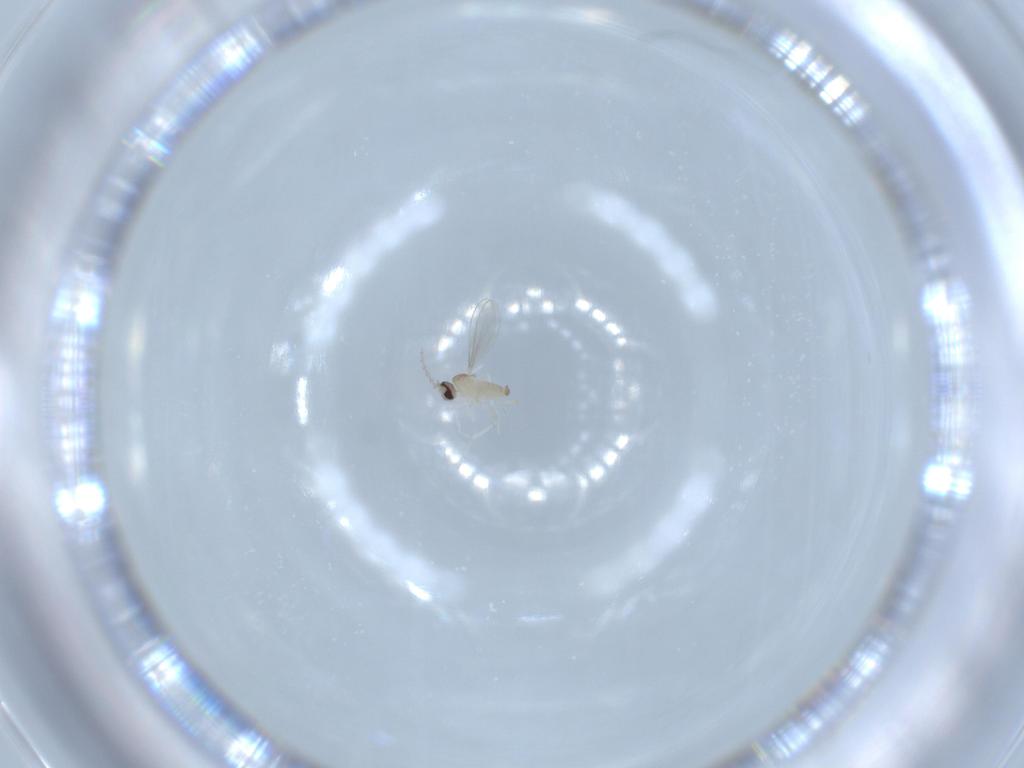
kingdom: Animalia
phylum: Arthropoda
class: Insecta
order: Diptera
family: Cecidomyiidae
